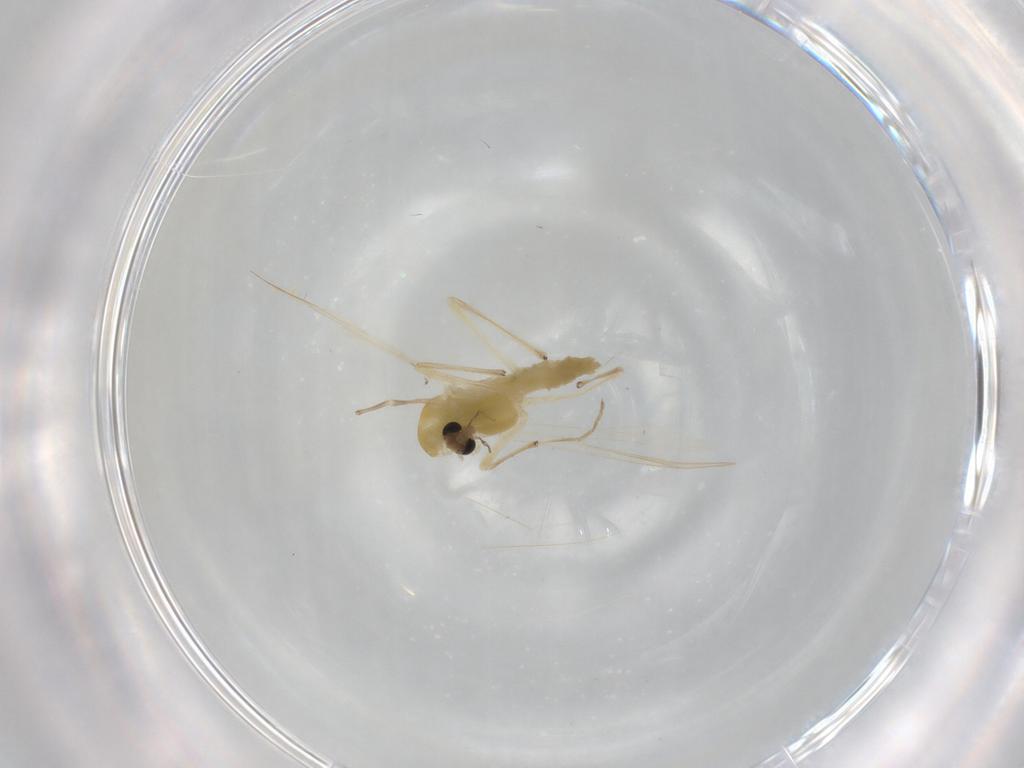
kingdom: Animalia
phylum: Arthropoda
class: Insecta
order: Diptera
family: Chironomidae
